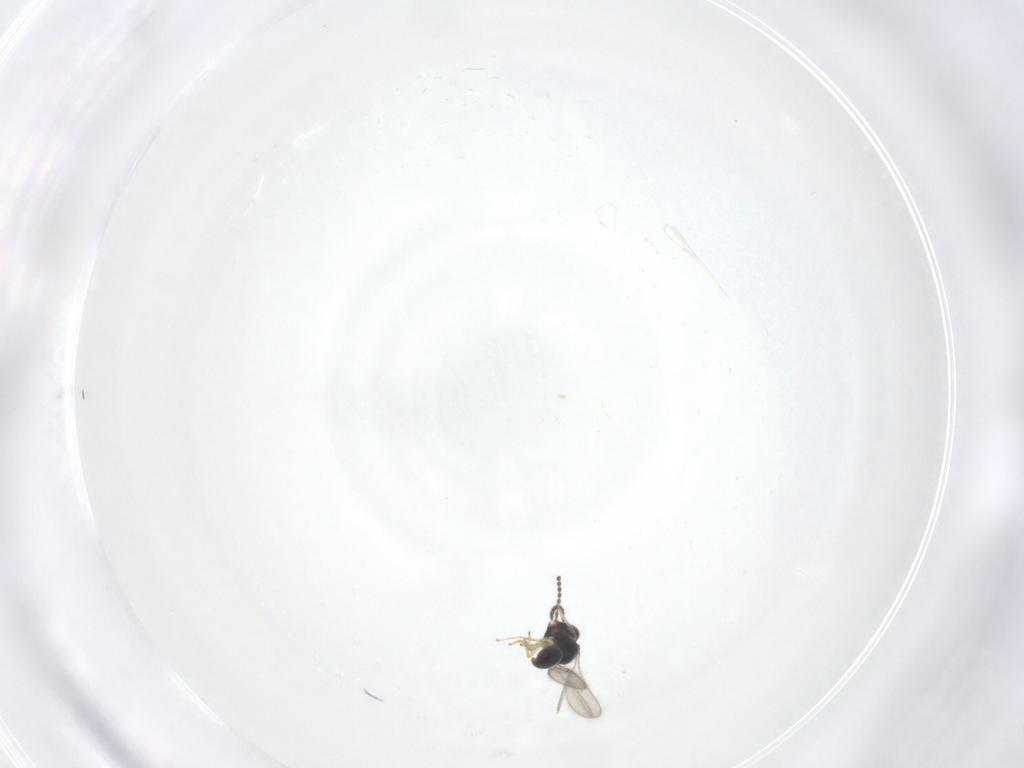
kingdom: Animalia
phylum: Arthropoda
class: Insecta
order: Hymenoptera
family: Scelionidae
